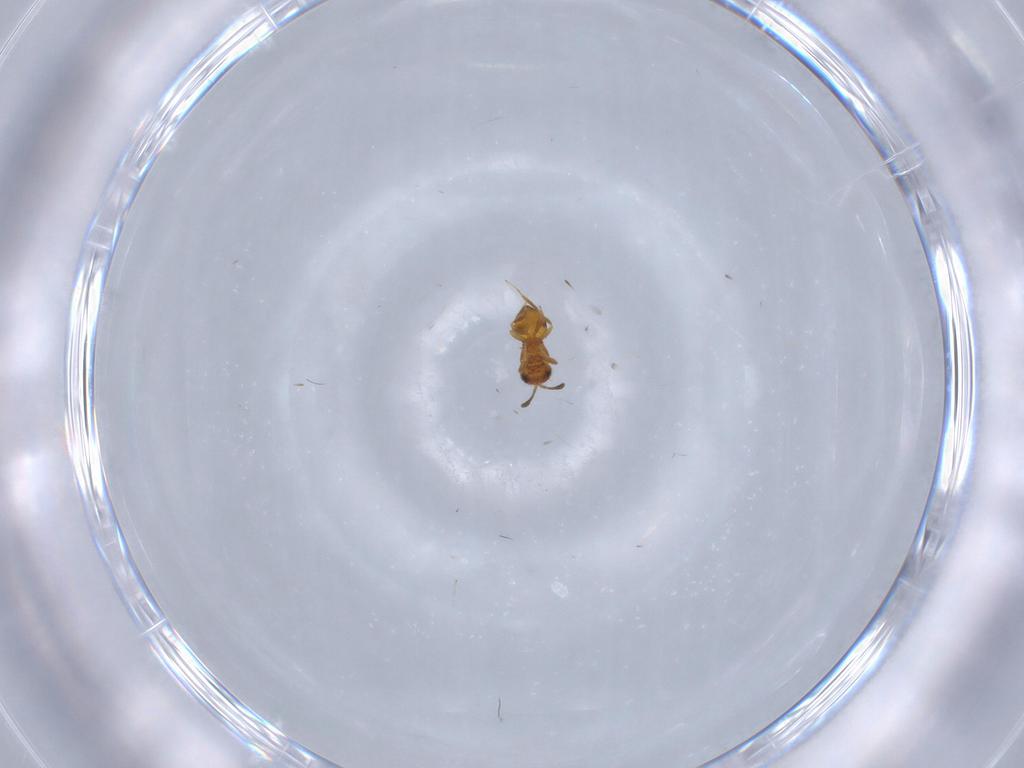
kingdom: Animalia
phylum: Arthropoda
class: Insecta
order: Hymenoptera
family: Scelionidae
